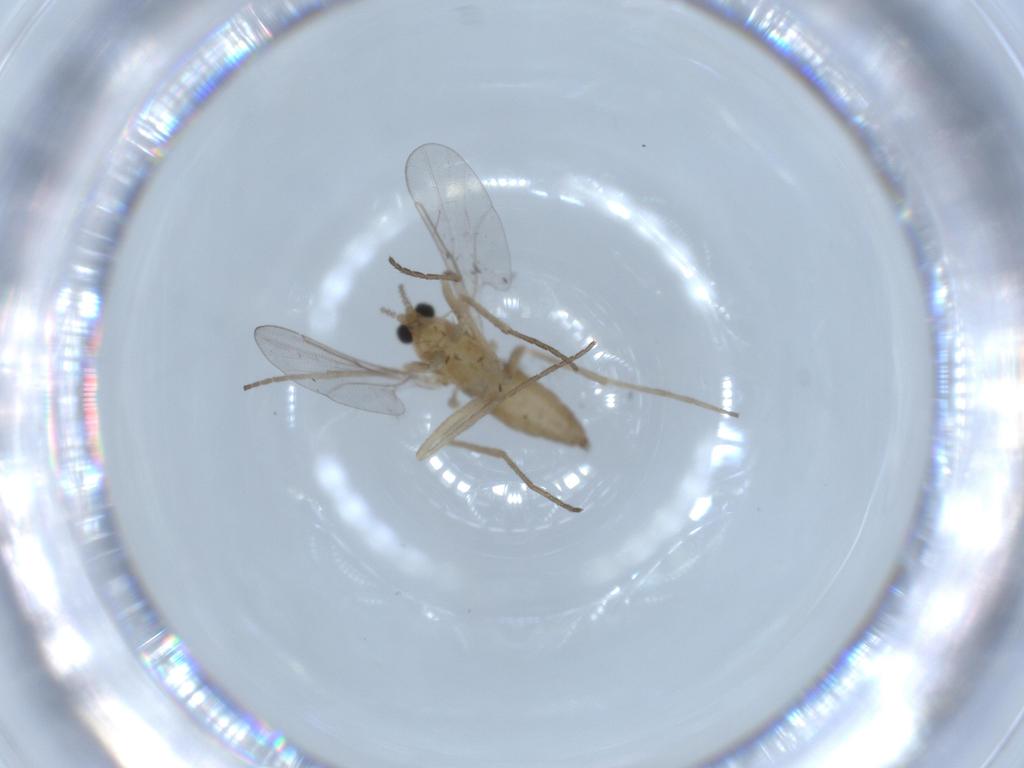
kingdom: Animalia
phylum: Arthropoda
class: Insecta
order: Diptera
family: Cecidomyiidae
